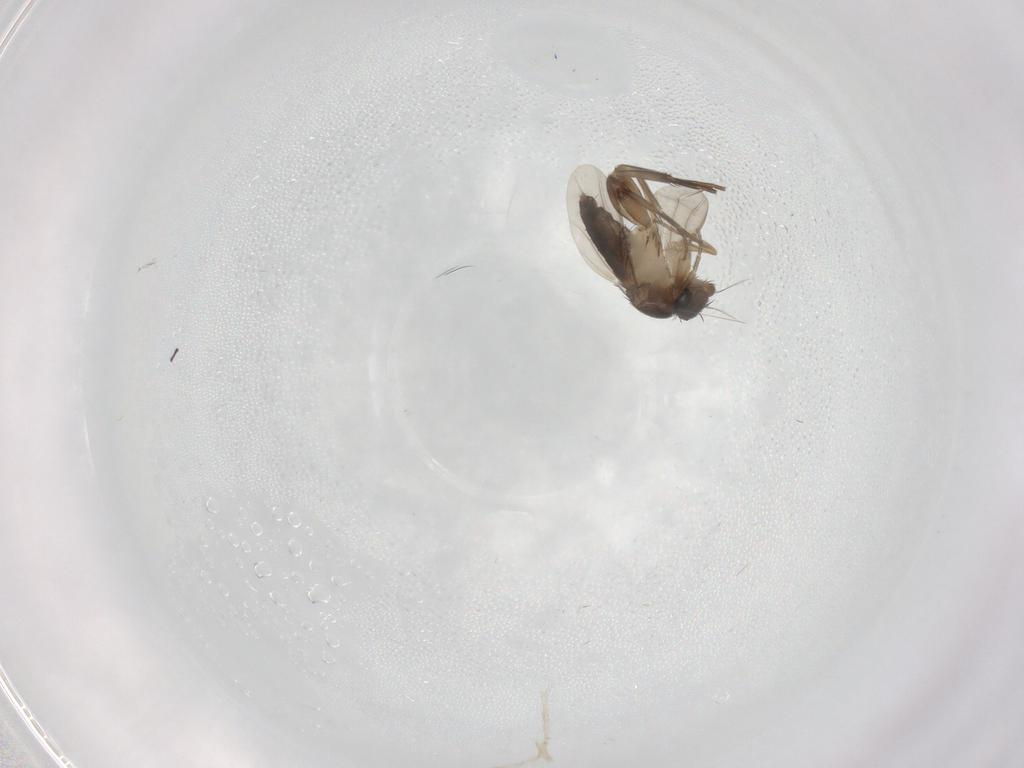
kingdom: Animalia
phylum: Arthropoda
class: Insecta
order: Diptera
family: Phoridae
